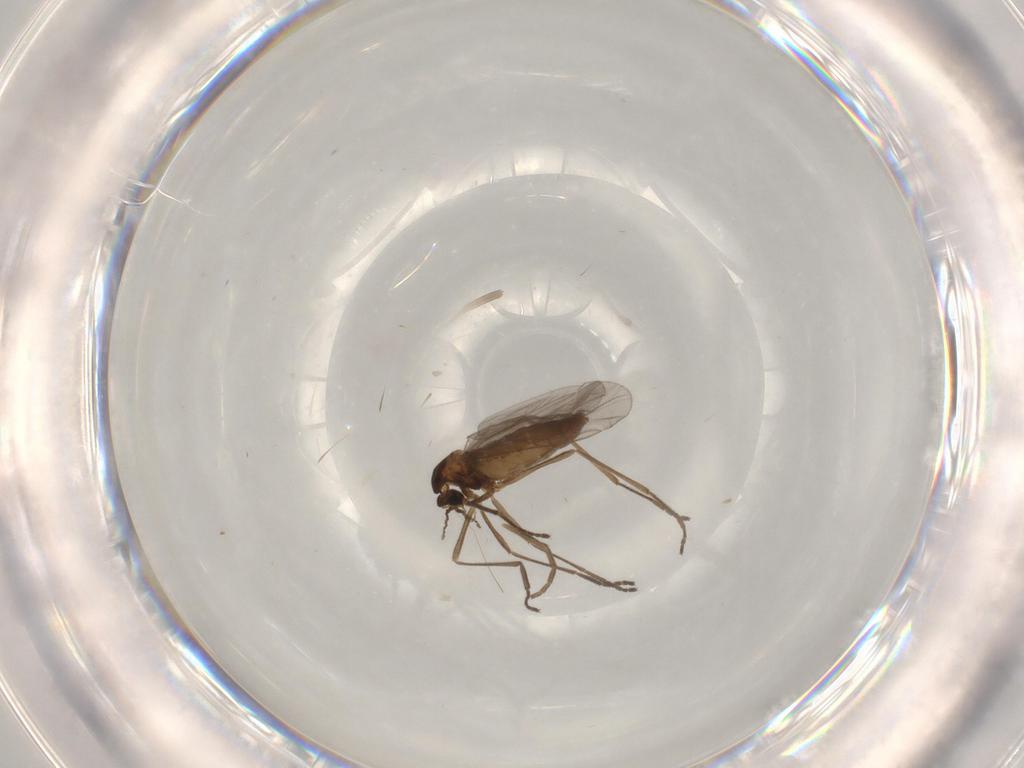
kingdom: Animalia
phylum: Arthropoda
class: Insecta
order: Diptera
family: Cecidomyiidae
